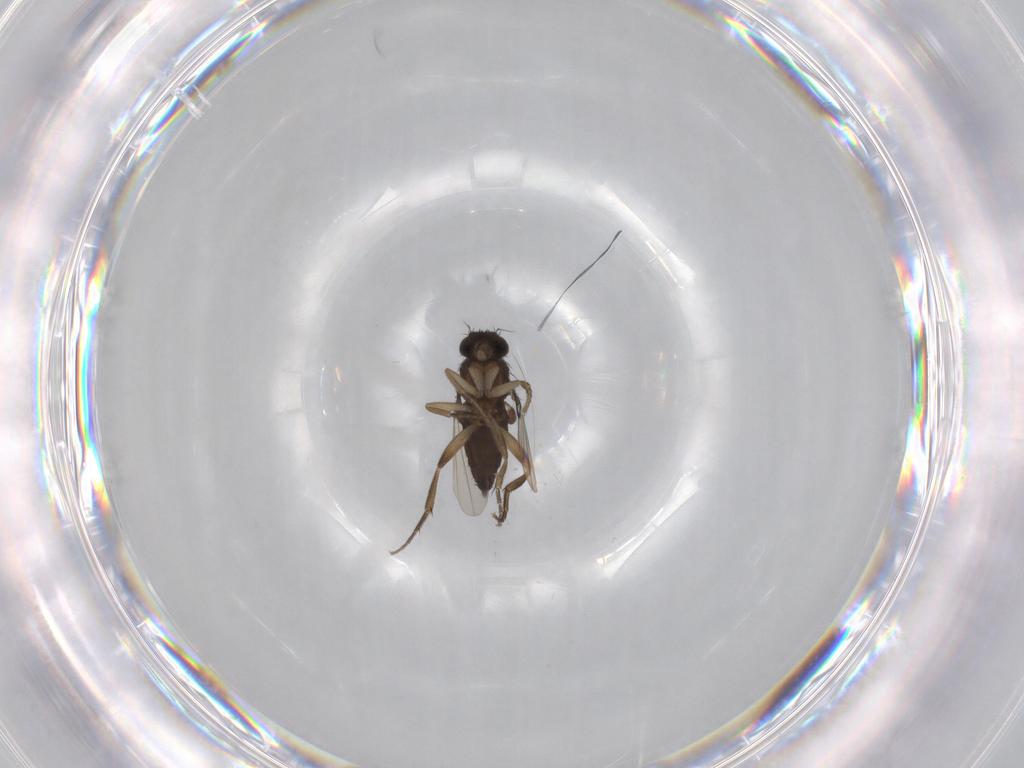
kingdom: Animalia
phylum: Arthropoda
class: Insecta
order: Diptera
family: Phoridae
